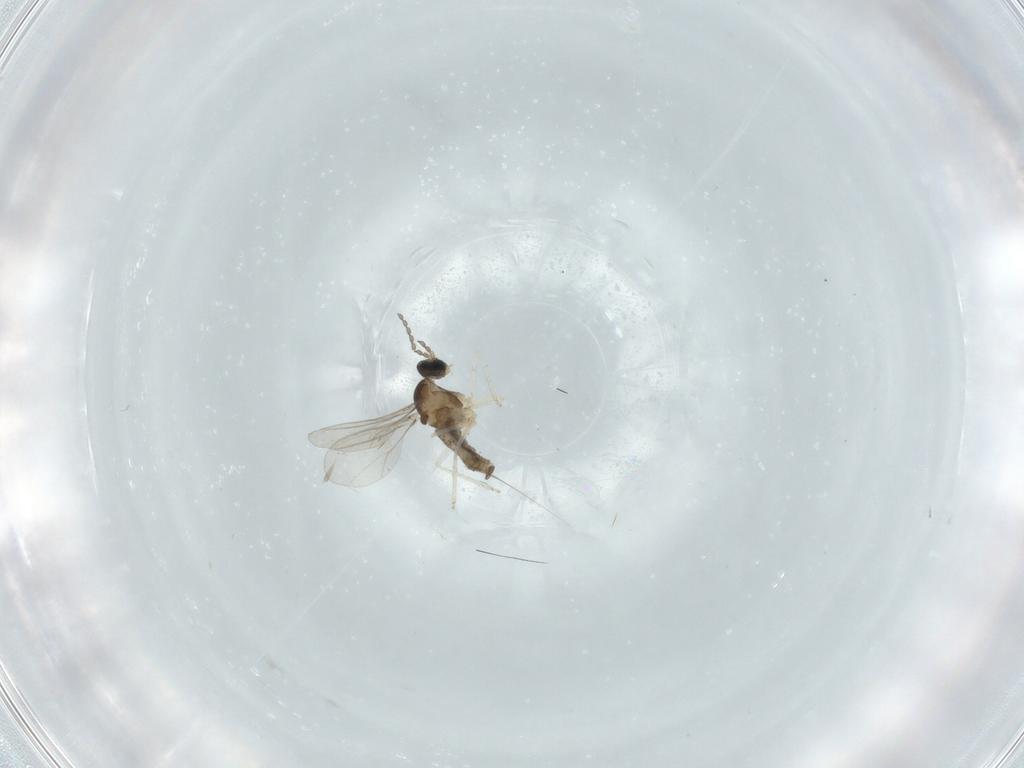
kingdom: Animalia
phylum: Arthropoda
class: Insecta
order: Diptera
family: Cecidomyiidae
